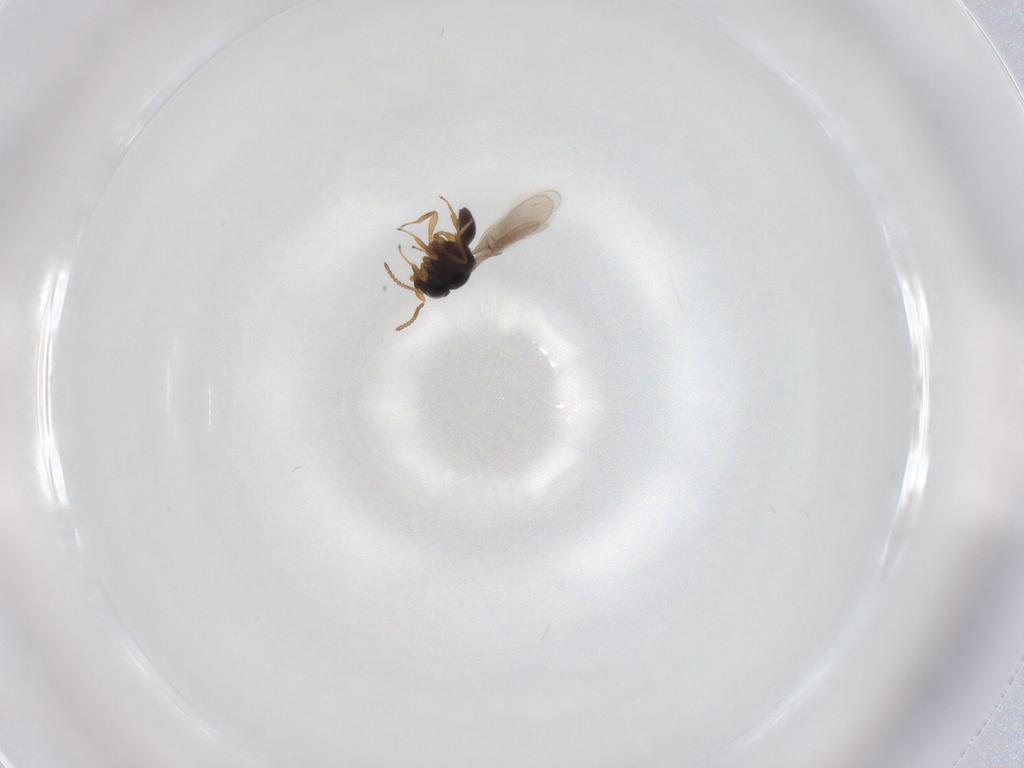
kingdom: Animalia
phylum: Arthropoda
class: Insecta
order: Hymenoptera
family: Scelionidae
